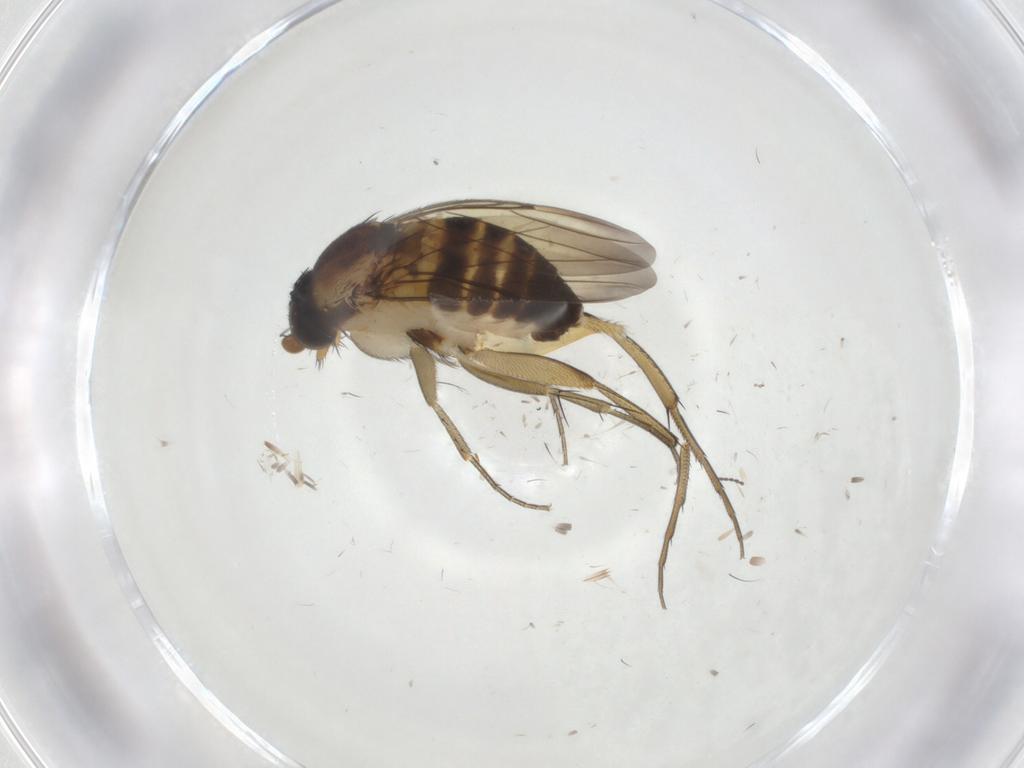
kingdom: Animalia
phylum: Arthropoda
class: Insecta
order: Diptera
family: Phoridae
